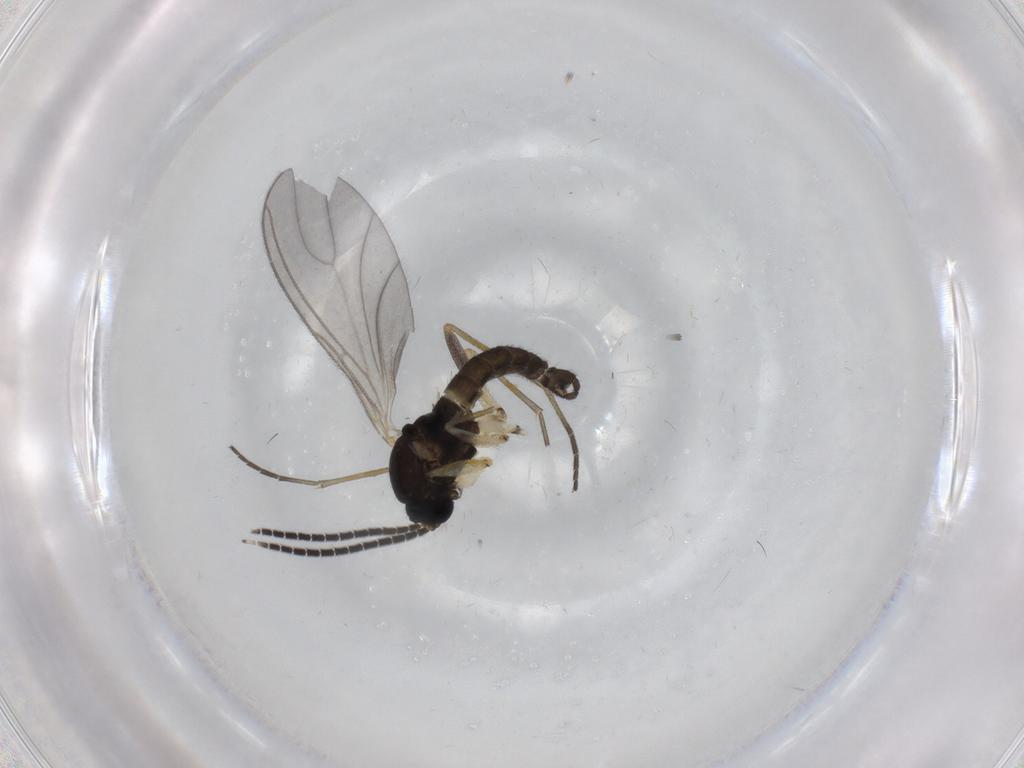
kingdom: Animalia
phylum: Arthropoda
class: Insecta
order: Diptera
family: Sciaridae
